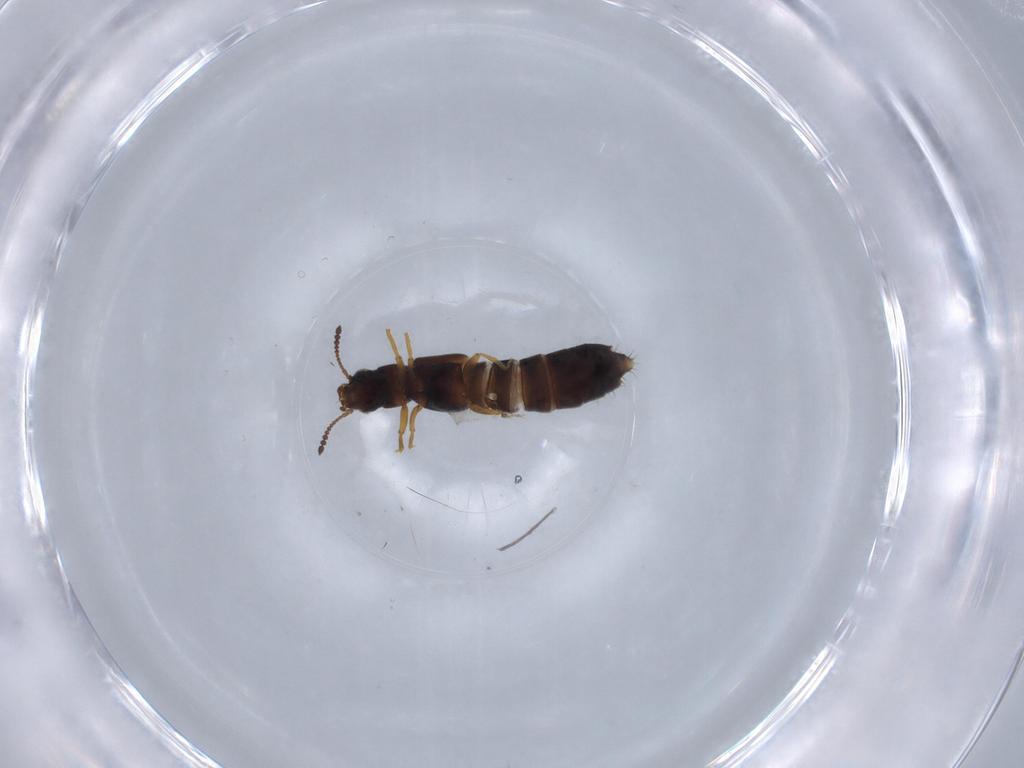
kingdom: Animalia
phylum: Arthropoda
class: Insecta
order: Coleoptera
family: Staphylinidae
